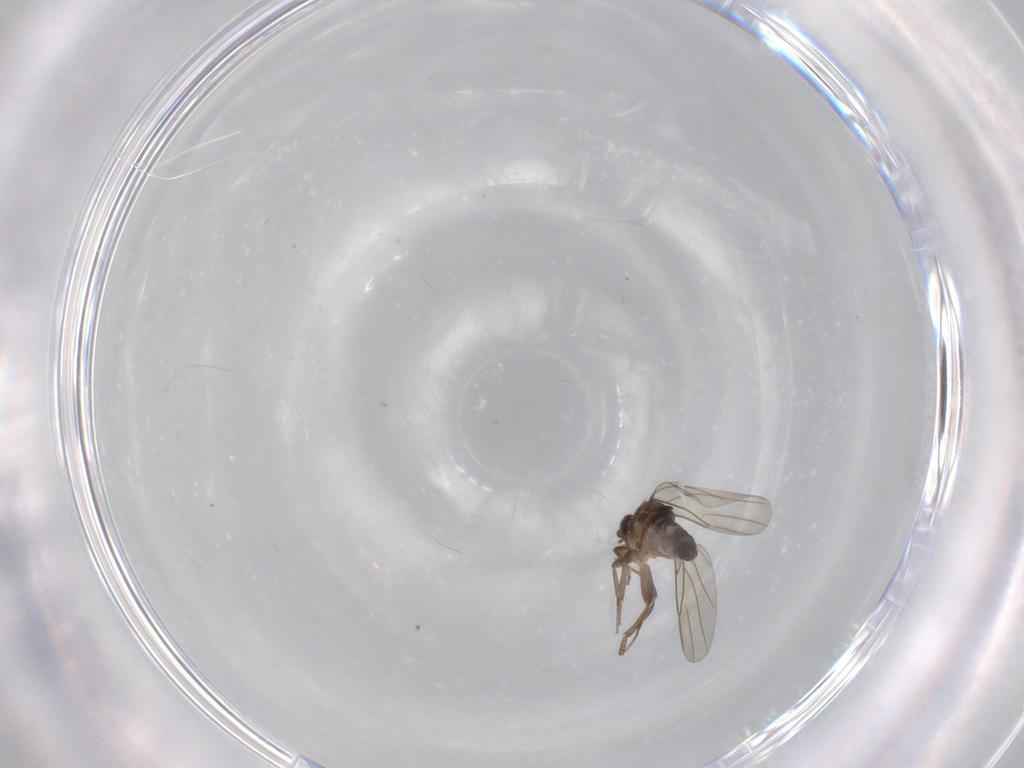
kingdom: Animalia
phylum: Arthropoda
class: Insecta
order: Diptera
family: Phoridae
